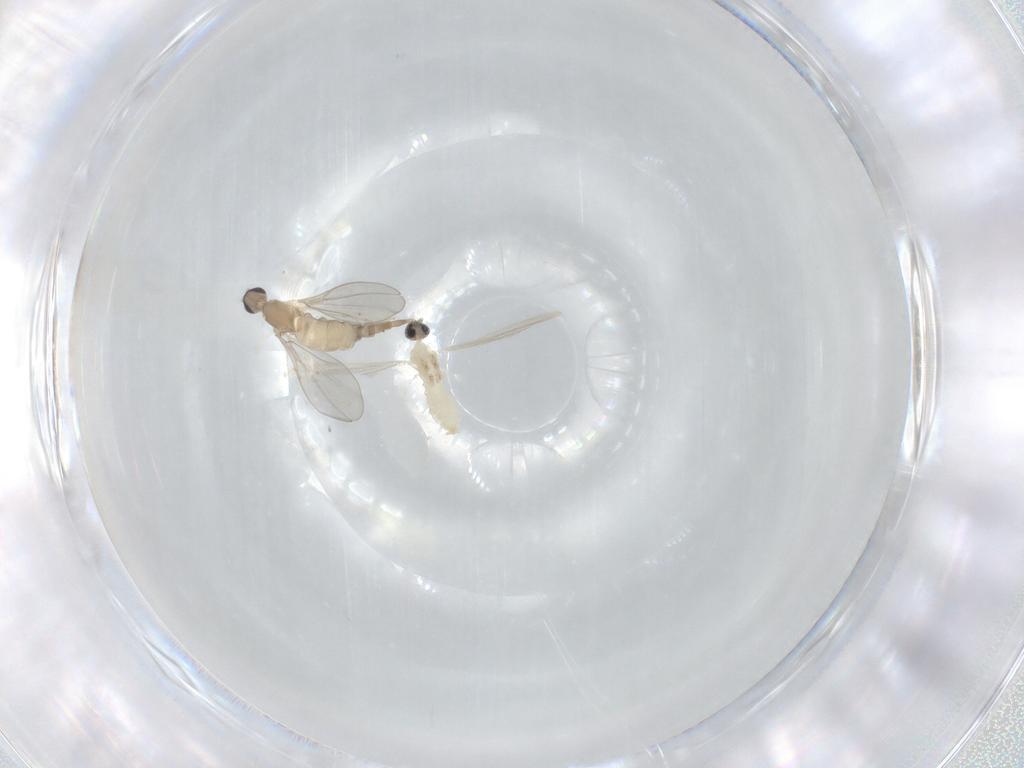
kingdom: Animalia
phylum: Arthropoda
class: Insecta
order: Diptera
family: Cecidomyiidae
